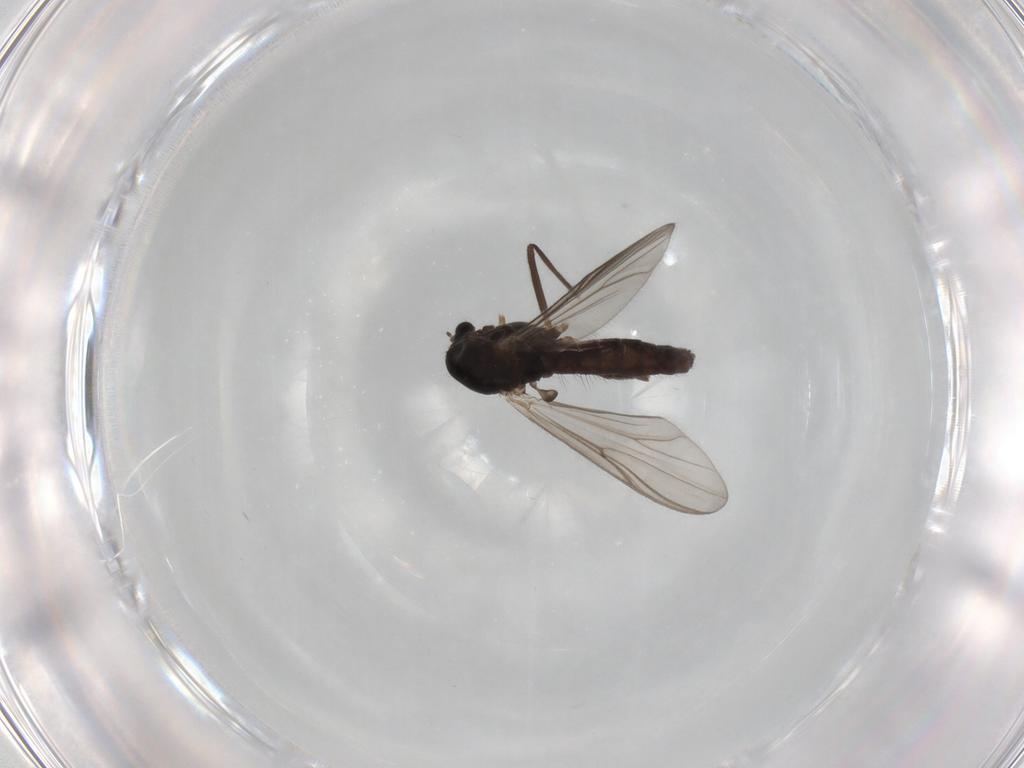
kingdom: Animalia
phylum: Arthropoda
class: Insecta
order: Diptera
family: Chironomidae
